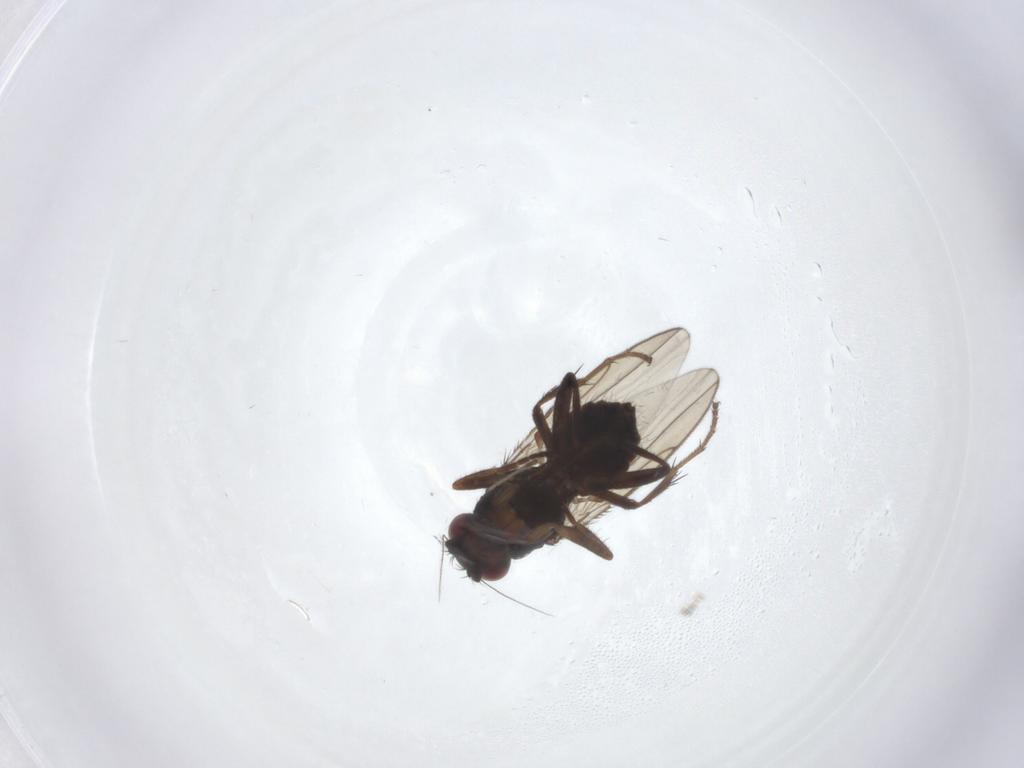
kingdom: Animalia
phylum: Arthropoda
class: Insecta
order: Diptera
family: Sphaeroceridae
